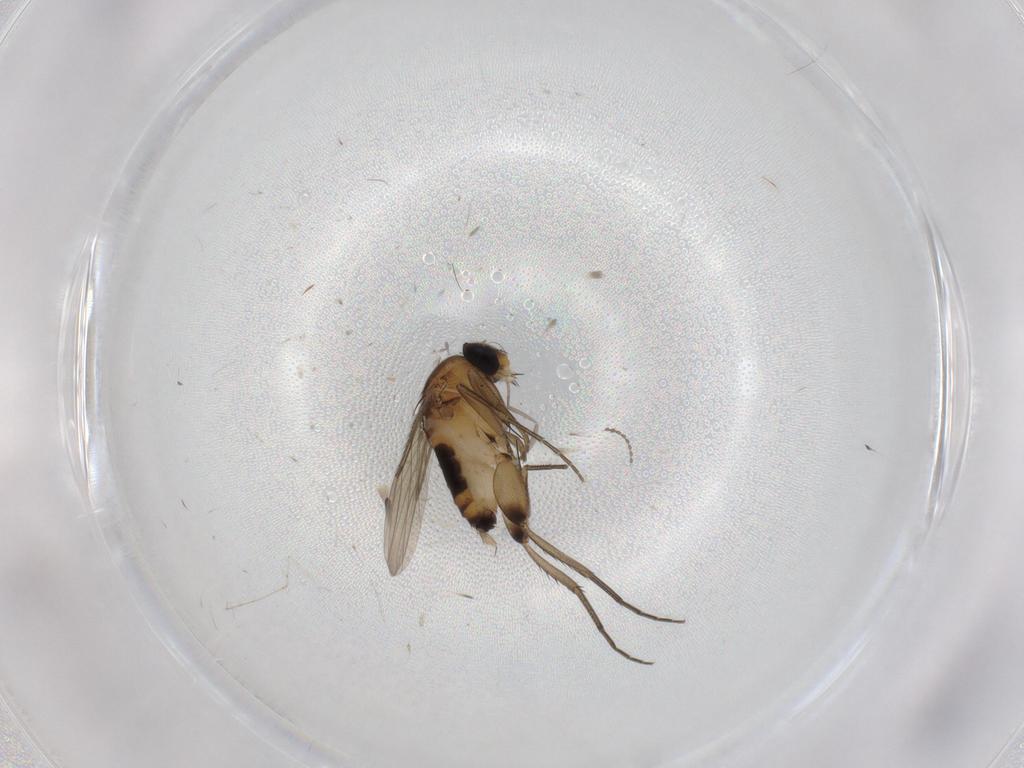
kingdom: Animalia
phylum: Arthropoda
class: Insecta
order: Diptera
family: Phoridae
